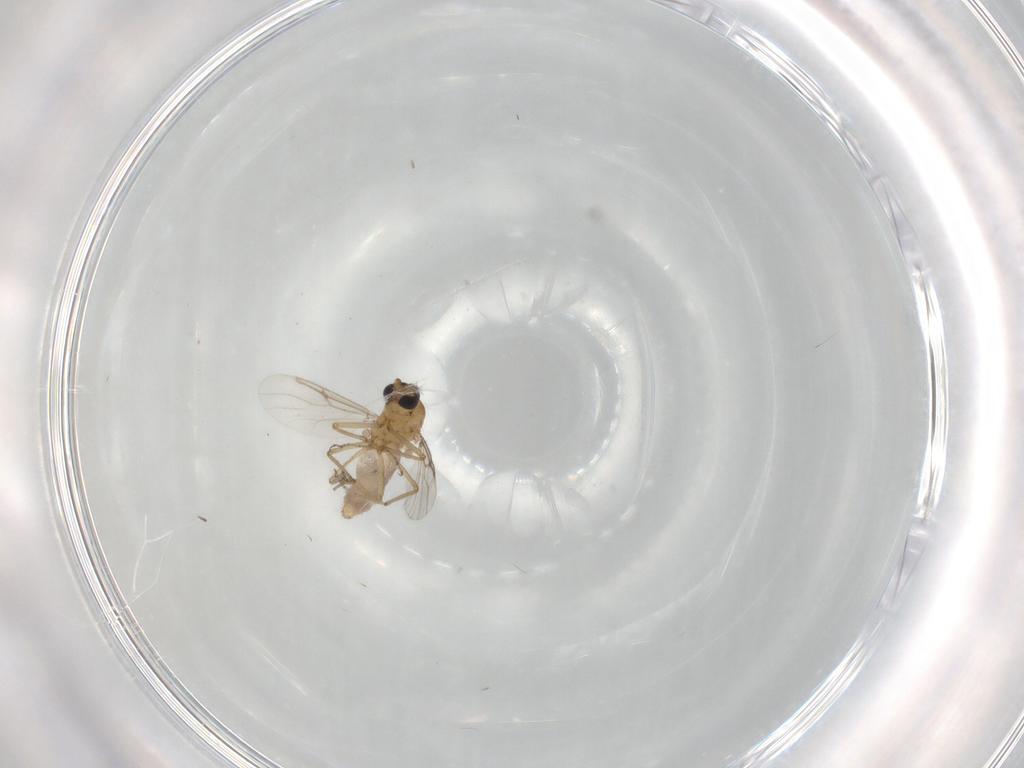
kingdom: Animalia
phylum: Arthropoda
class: Insecta
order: Diptera
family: Ceratopogonidae
